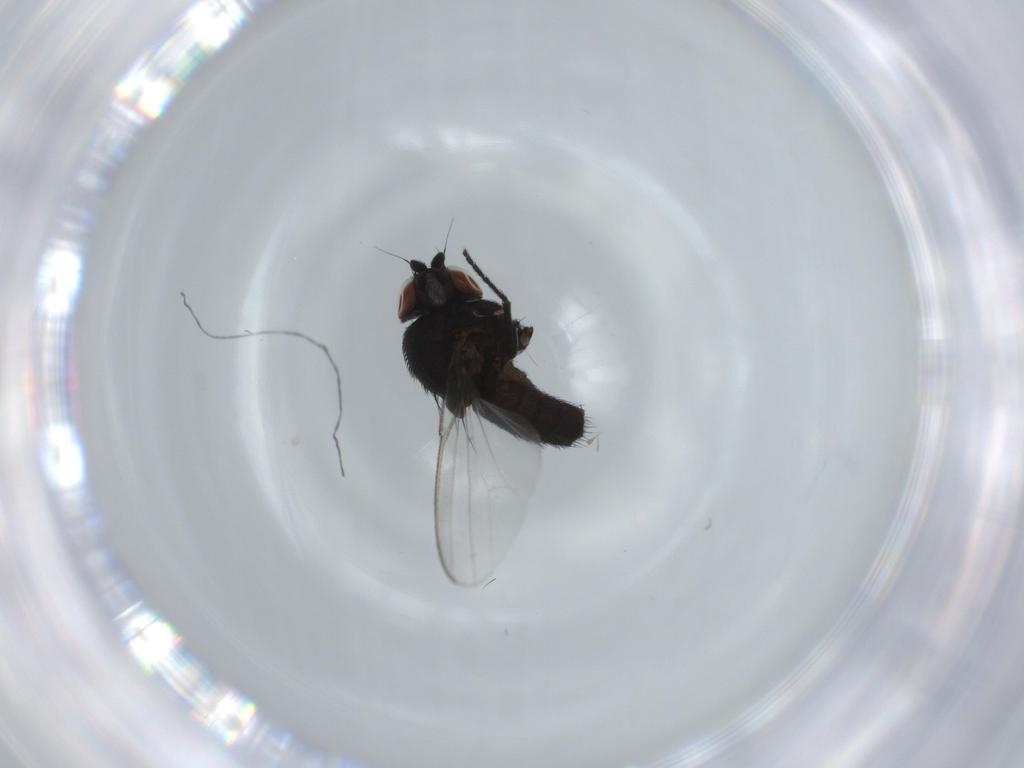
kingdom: Animalia
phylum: Arthropoda
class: Insecta
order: Diptera
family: Milichiidae
